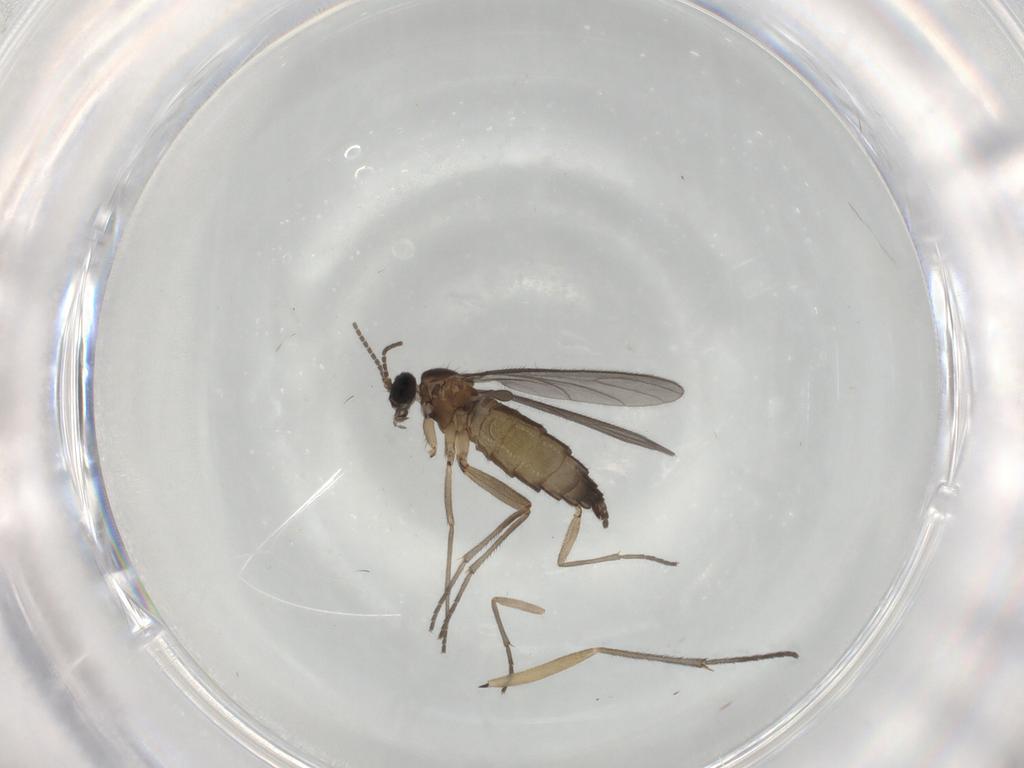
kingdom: Animalia
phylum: Arthropoda
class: Insecta
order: Diptera
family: Sciaridae
